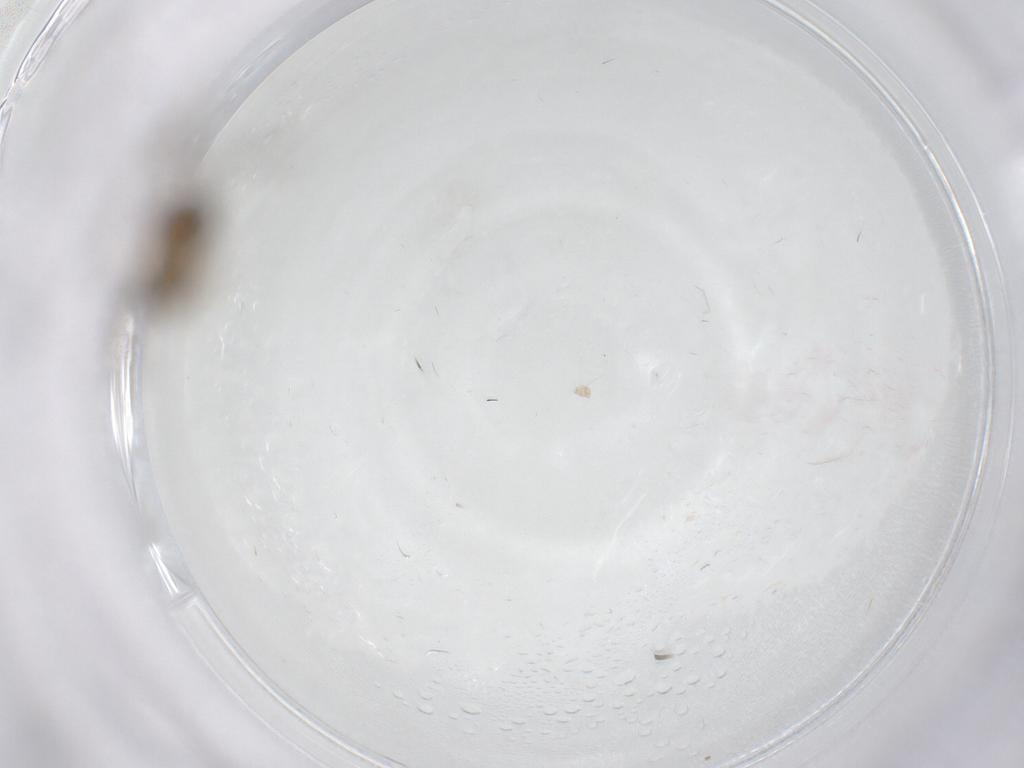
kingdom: Animalia
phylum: Arthropoda
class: Insecta
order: Diptera
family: Sciaridae
